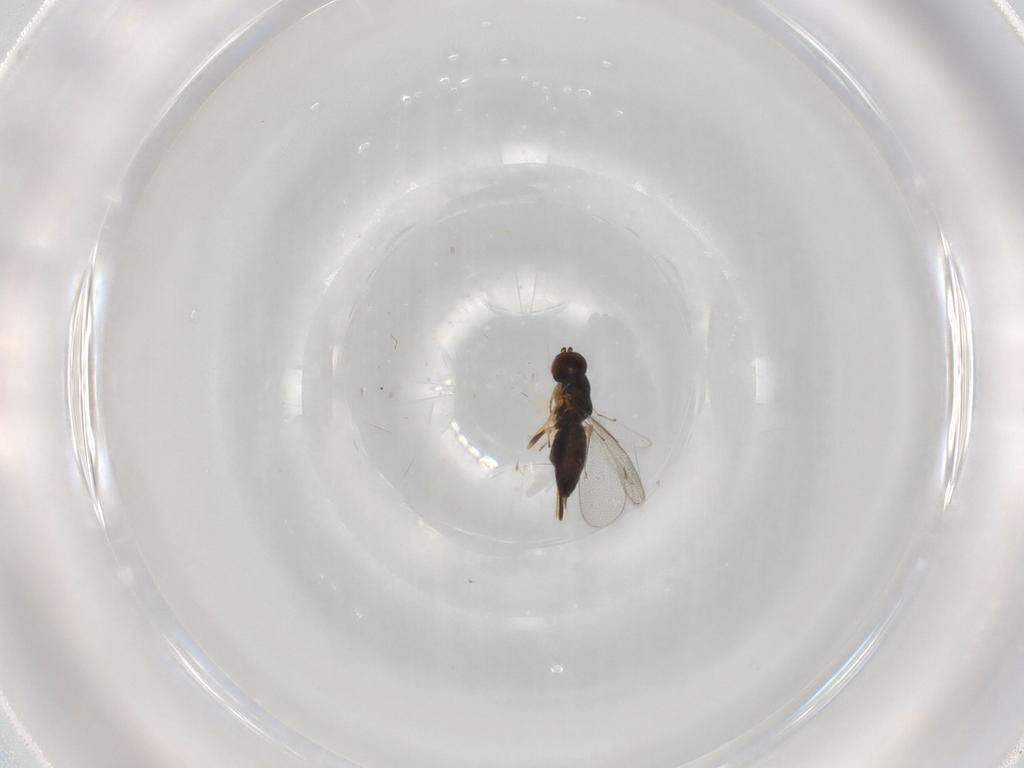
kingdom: Animalia
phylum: Arthropoda
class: Insecta
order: Hymenoptera
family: Eulophidae
